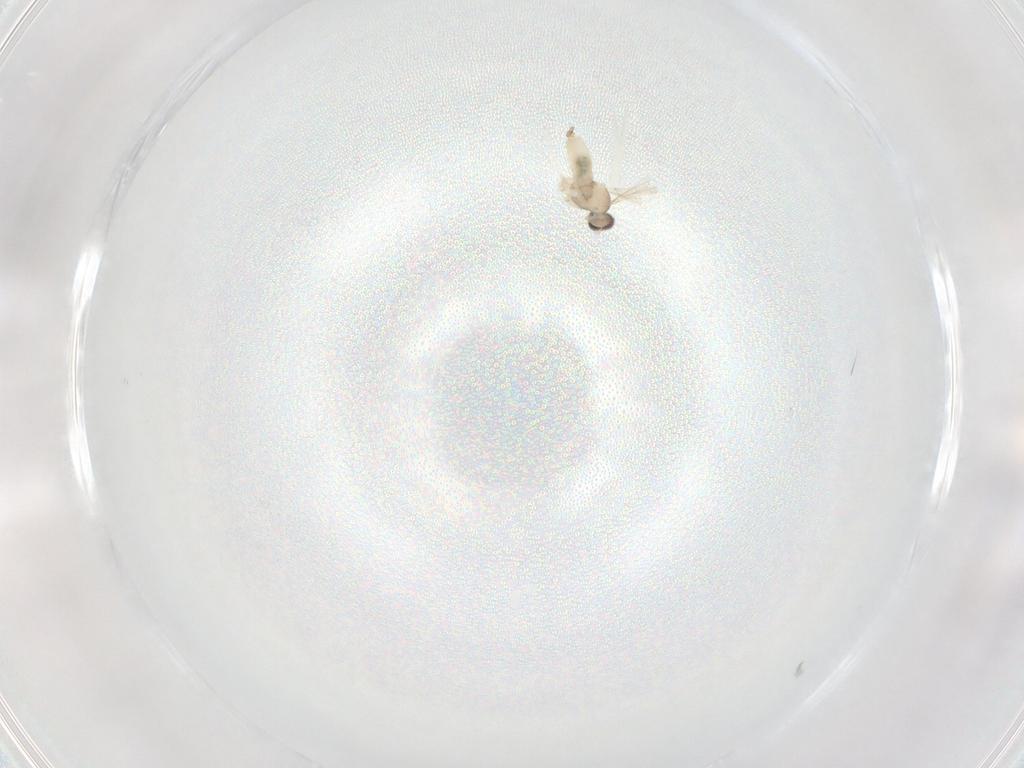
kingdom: Animalia
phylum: Arthropoda
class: Insecta
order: Diptera
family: Cecidomyiidae
